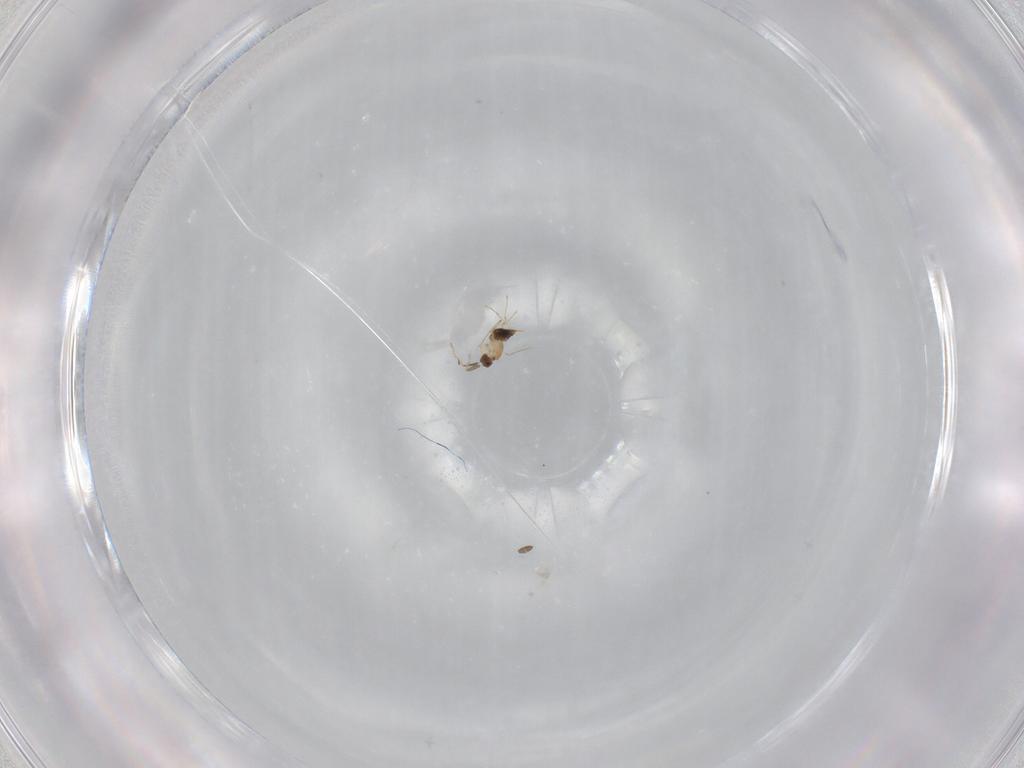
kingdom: Animalia
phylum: Arthropoda
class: Insecta
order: Hymenoptera
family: Mymaridae
